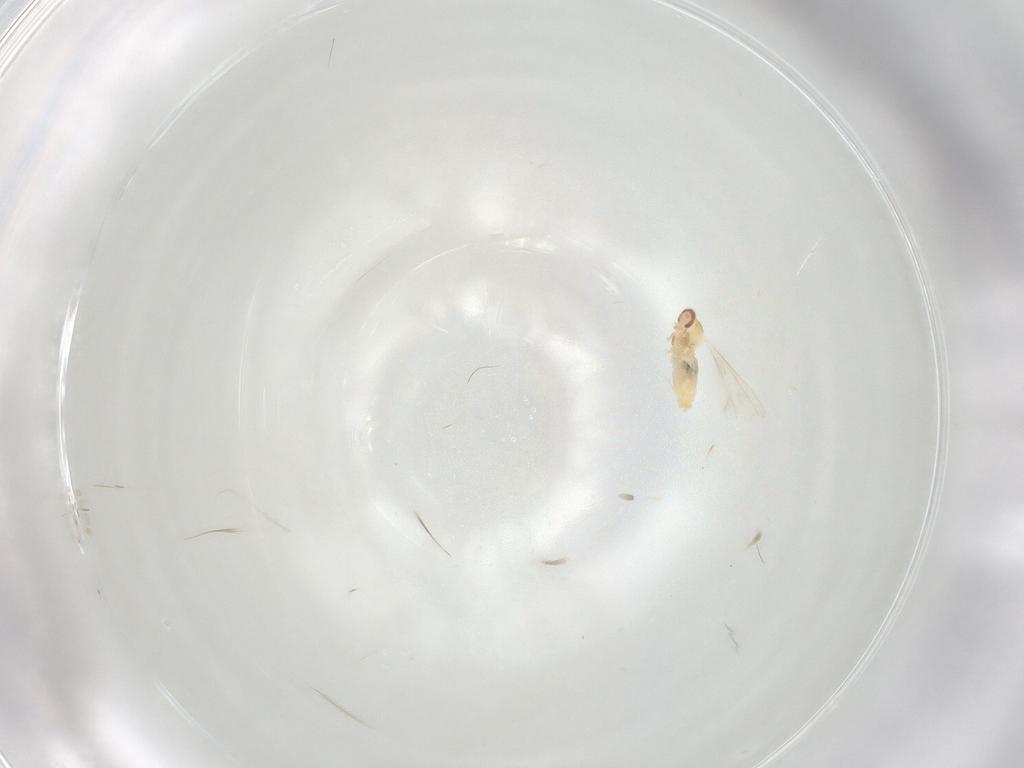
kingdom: Animalia
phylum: Arthropoda
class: Insecta
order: Diptera
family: Cecidomyiidae
